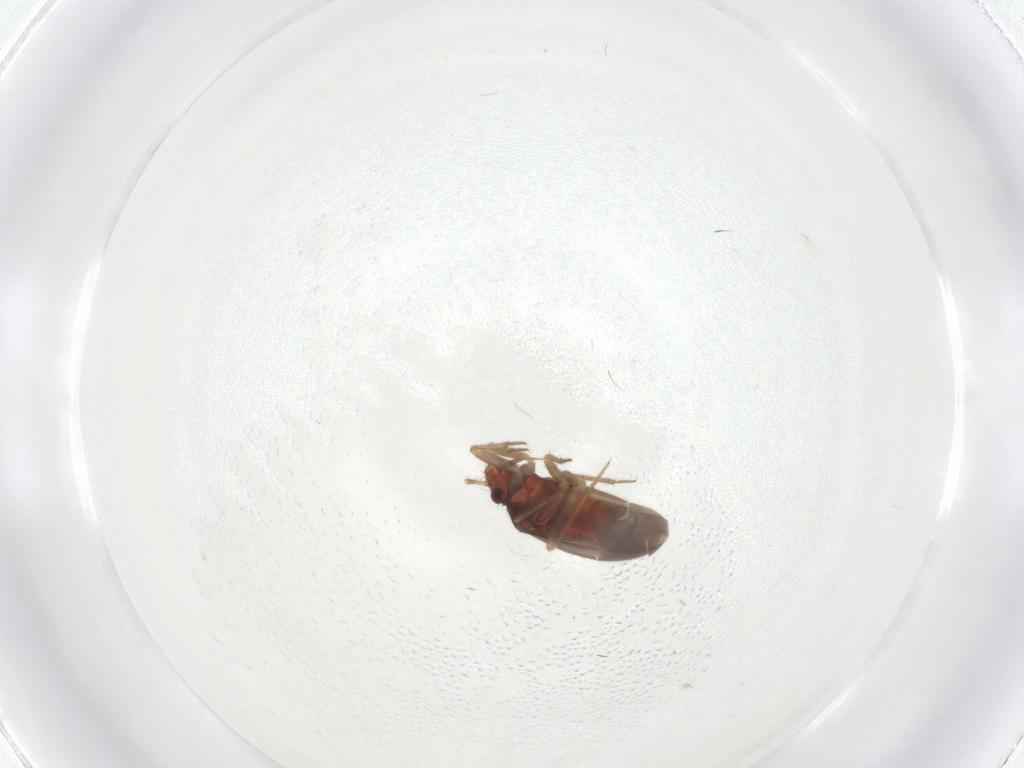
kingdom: Animalia
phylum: Arthropoda
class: Insecta
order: Hemiptera
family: Ceratocombidae
